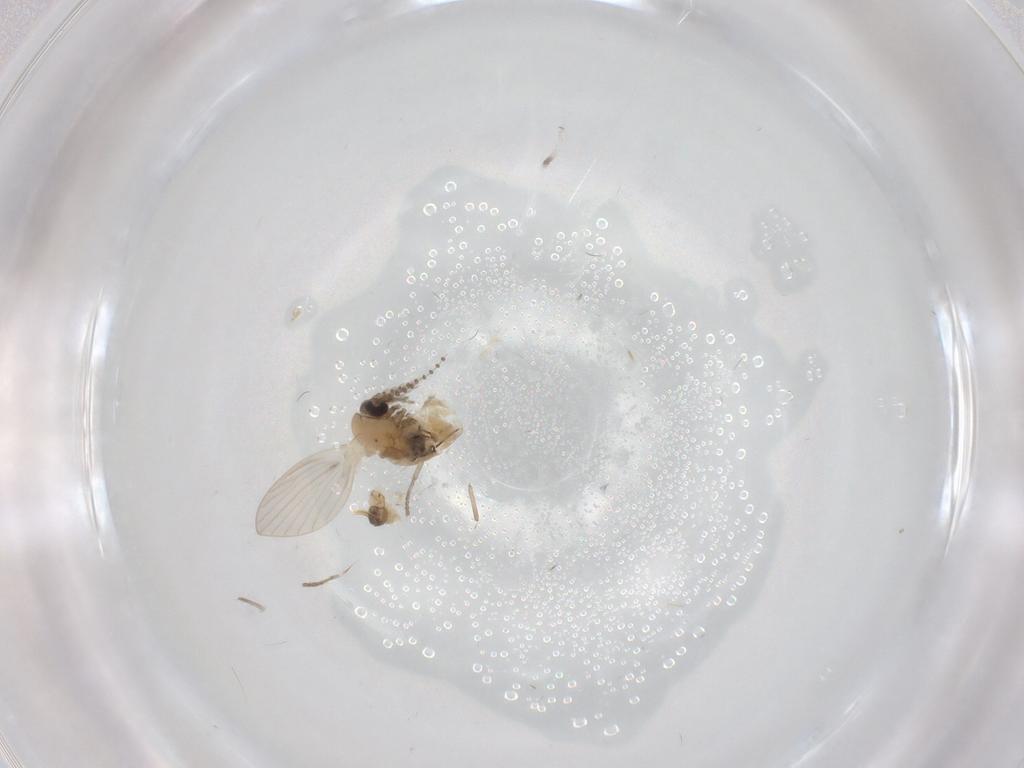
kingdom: Animalia
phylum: Arthropoda
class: Insecta
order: Diptera
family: Psychodidae
